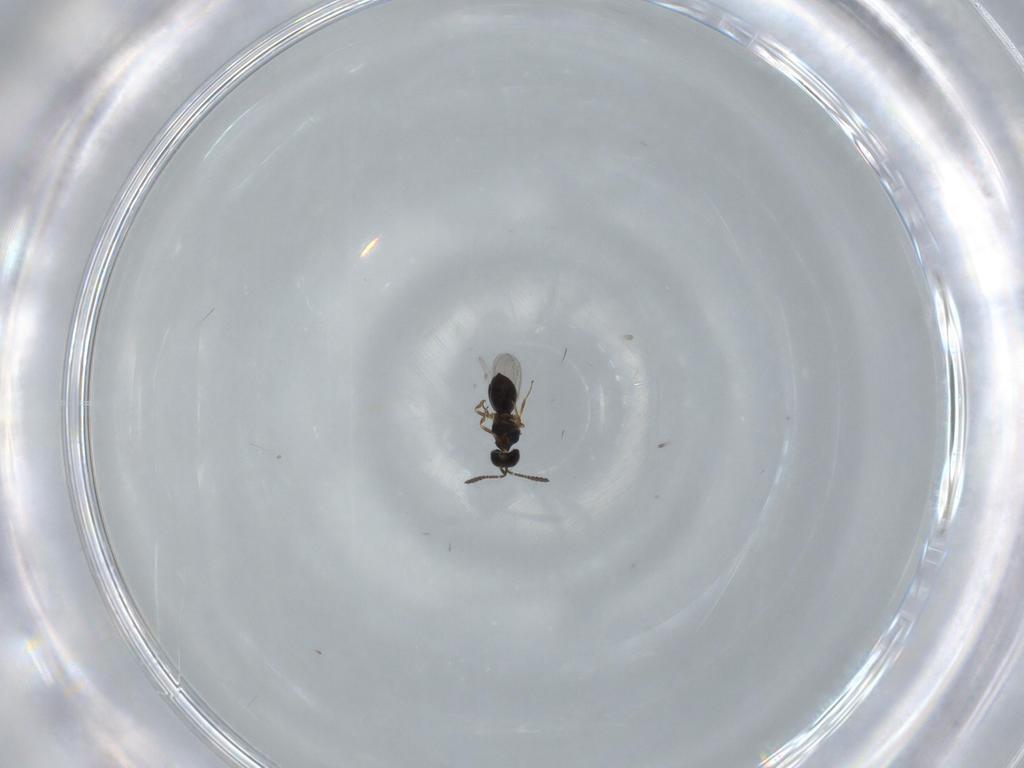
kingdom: Animalia
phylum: Arthropoda
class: Insecta
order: Hymenoptera
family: Scelionidae
